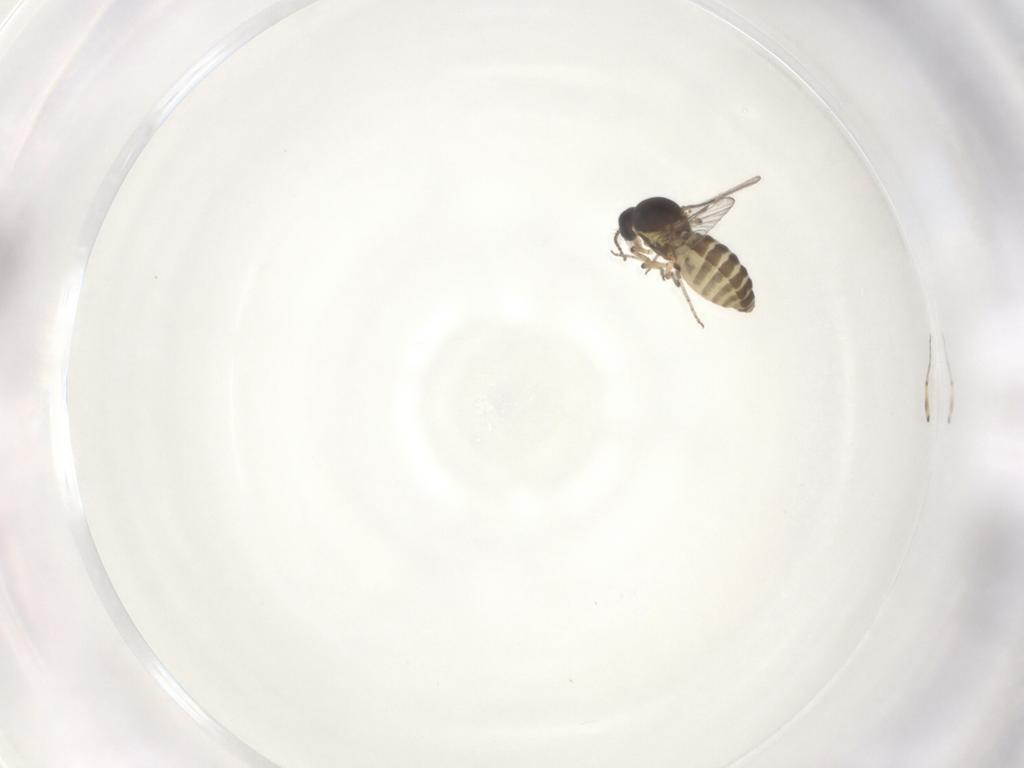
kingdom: Animalia
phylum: Arthropoda
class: Insecta
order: Diptera
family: Ceratopogonidae
